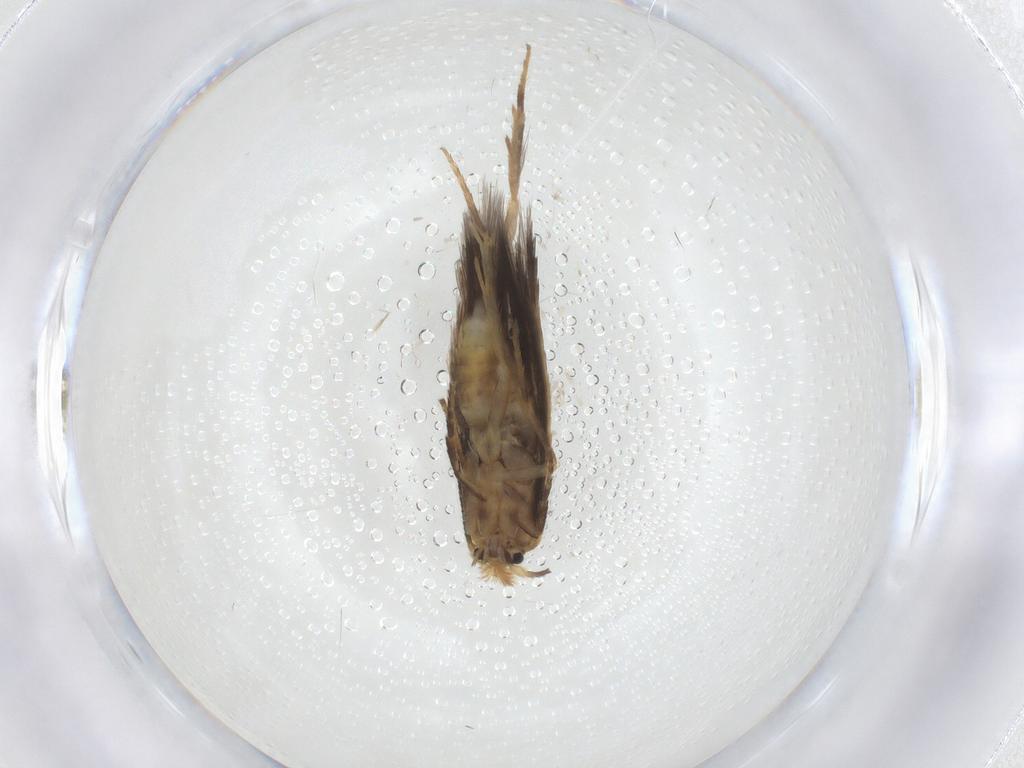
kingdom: Animalia
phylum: Arthropoda
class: Insecta
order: Lepidoptera
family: Nepticulidae
